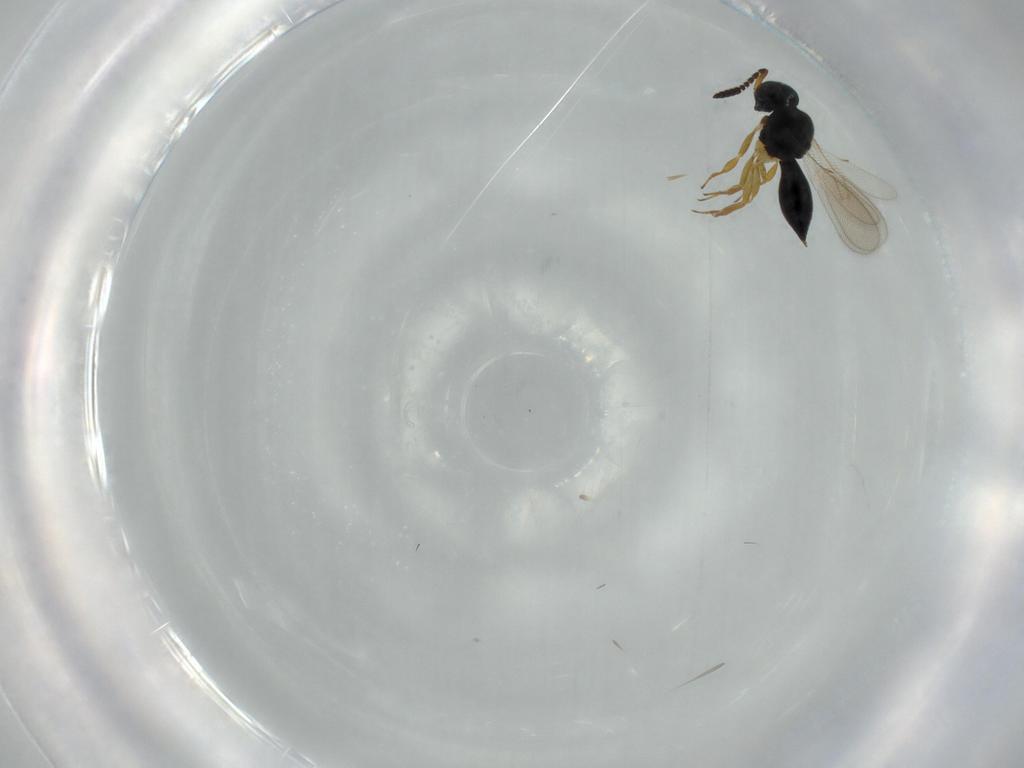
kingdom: Animalia
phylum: Arthropoda
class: Insecta
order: Hymenoptera
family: Scelionidae
